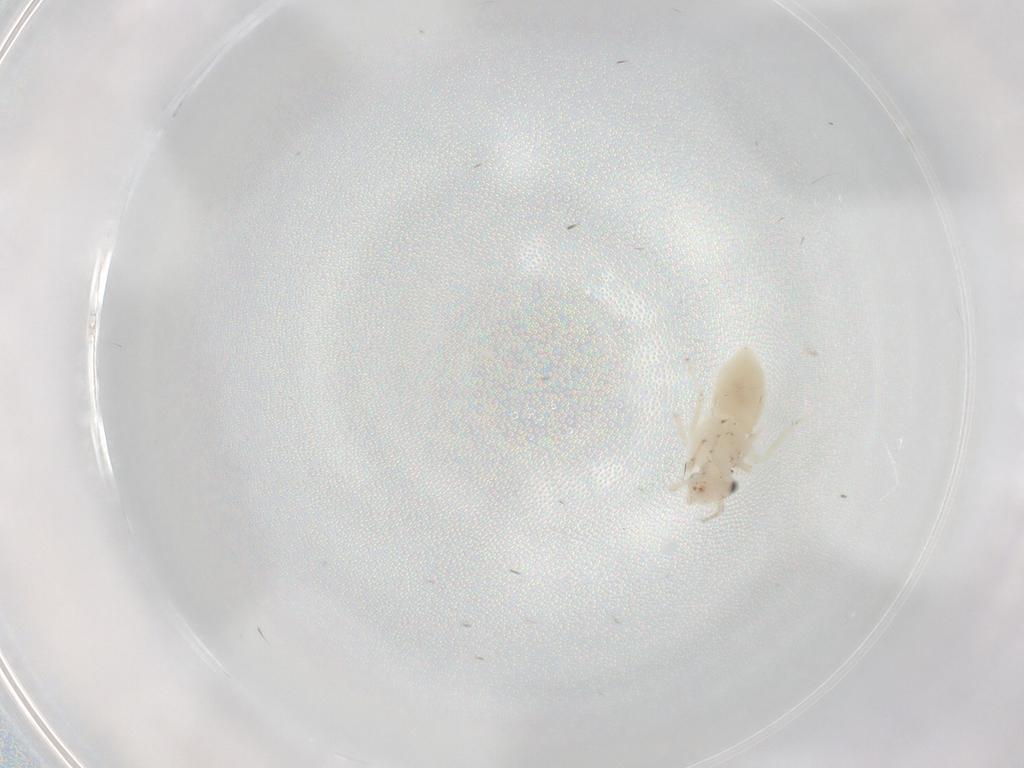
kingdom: Animalia
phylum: Arthropoda
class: Insecta
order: Psocodea
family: Lepidopsocidae
